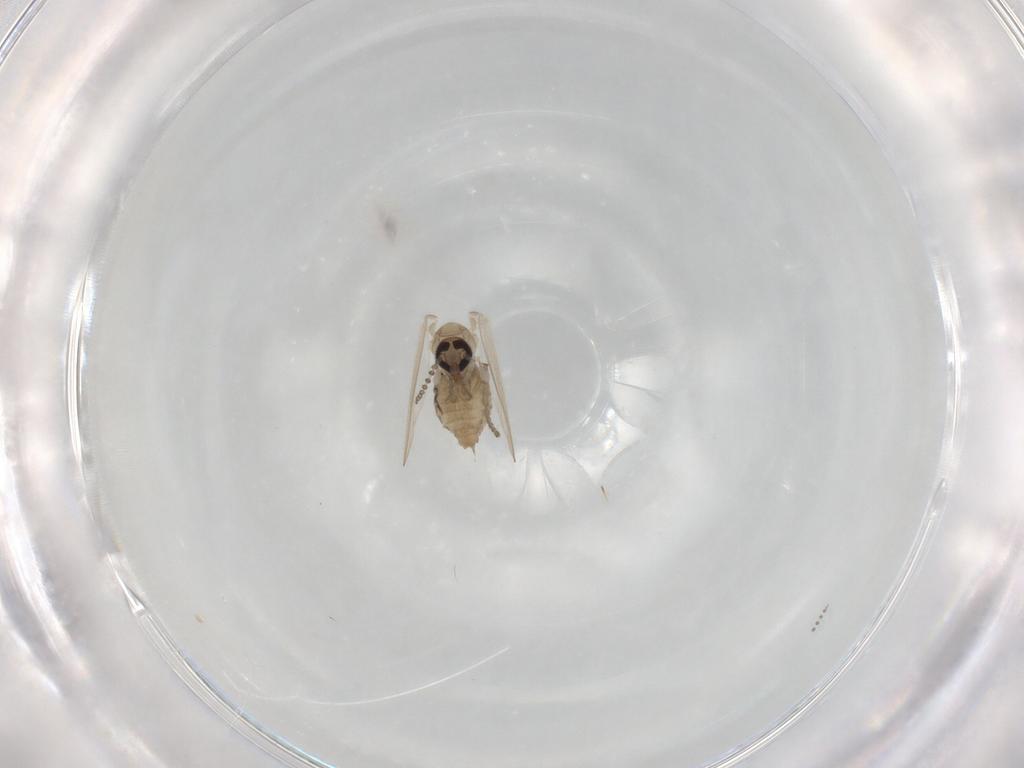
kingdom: Animalia
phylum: Arthropoda
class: Insecta
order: Diptera
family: Psychodidae
